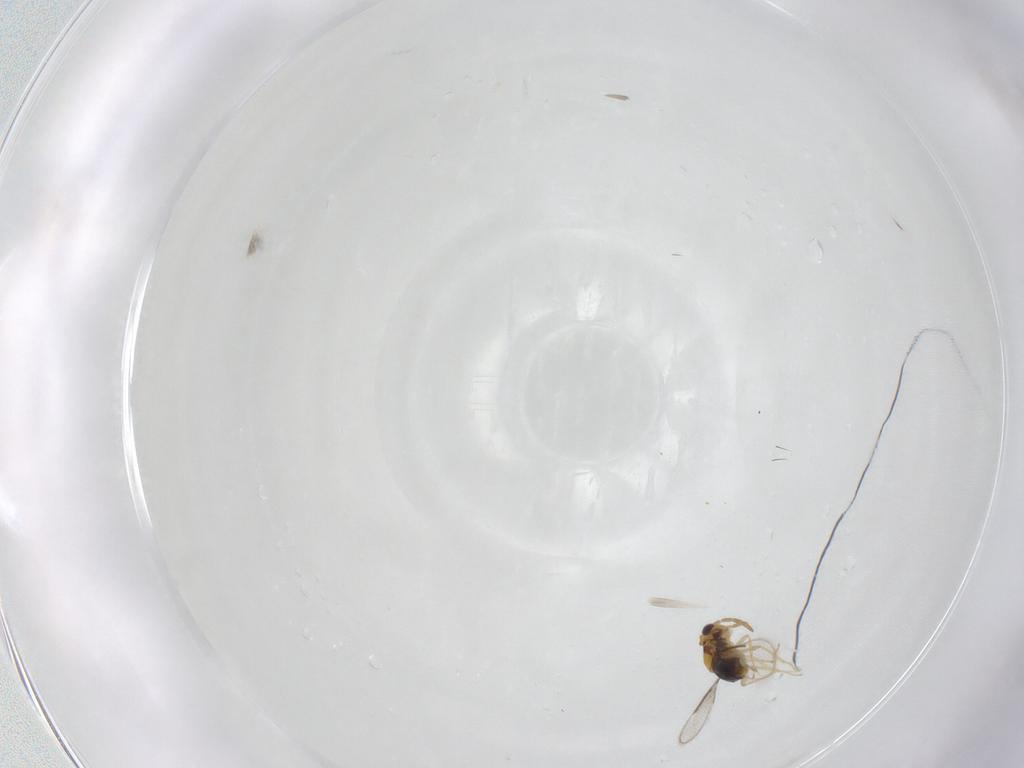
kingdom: Animalia
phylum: Arthropoda
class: Insecta
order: Hymenoptera
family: Aphelinidae
